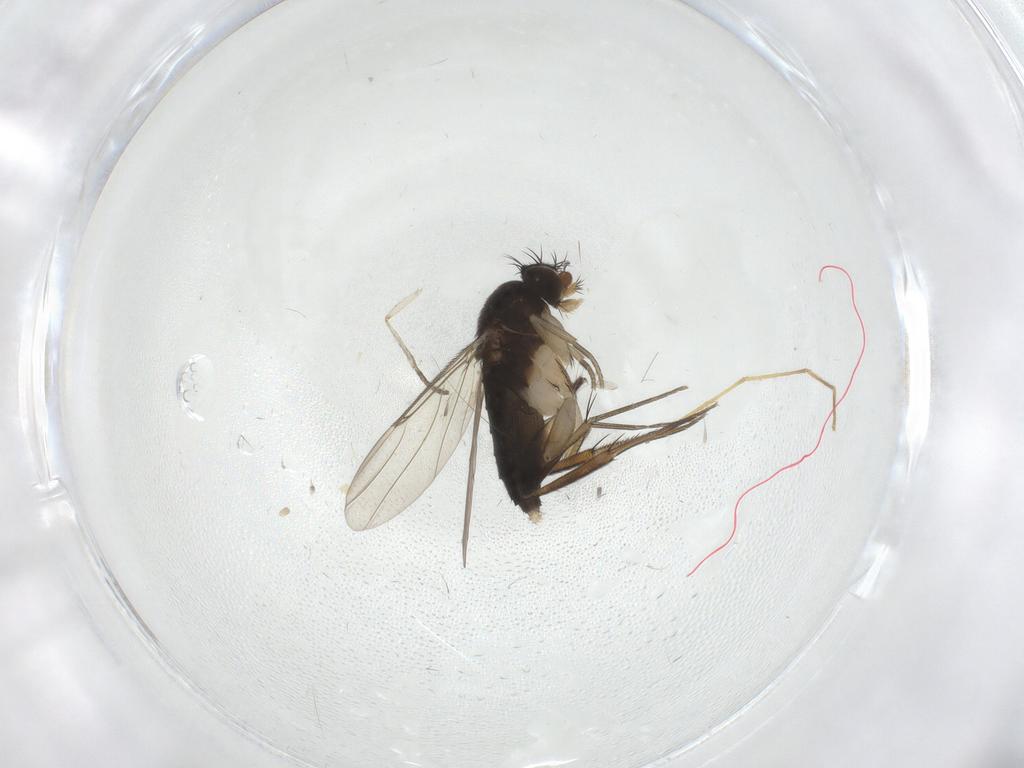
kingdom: Animalia
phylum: Arthropoda
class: Insecta
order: Diptera
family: Phoridae
